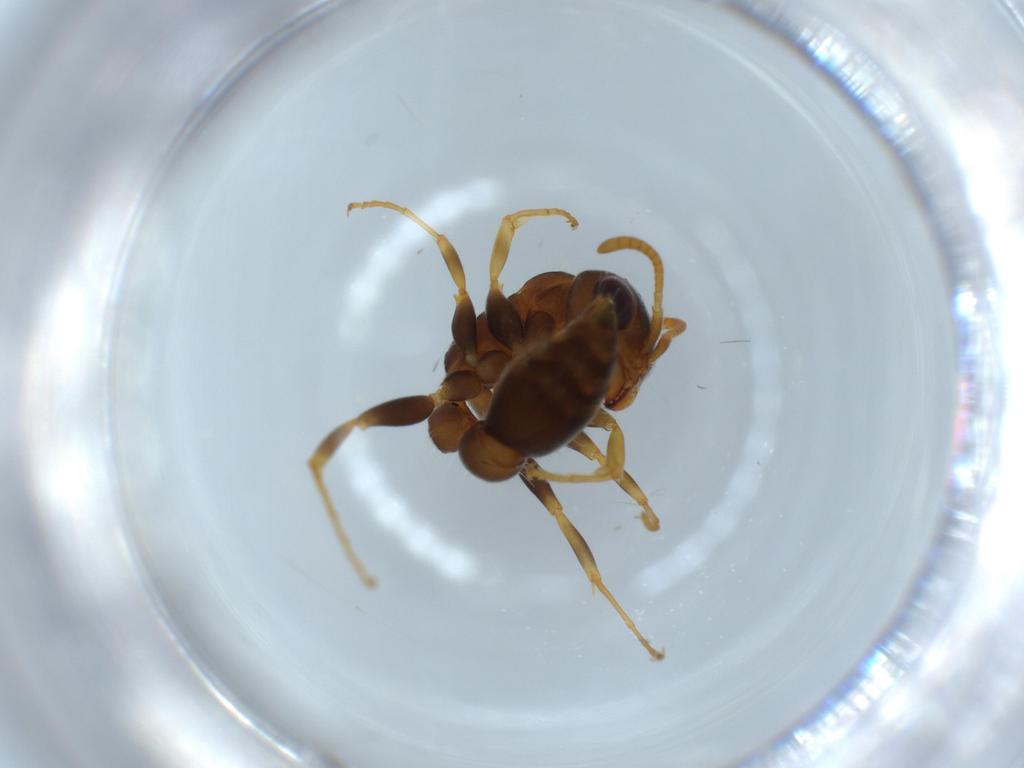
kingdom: Animalia
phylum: Arthropoda
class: Insecta
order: Hymenoptera
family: Formicidae
